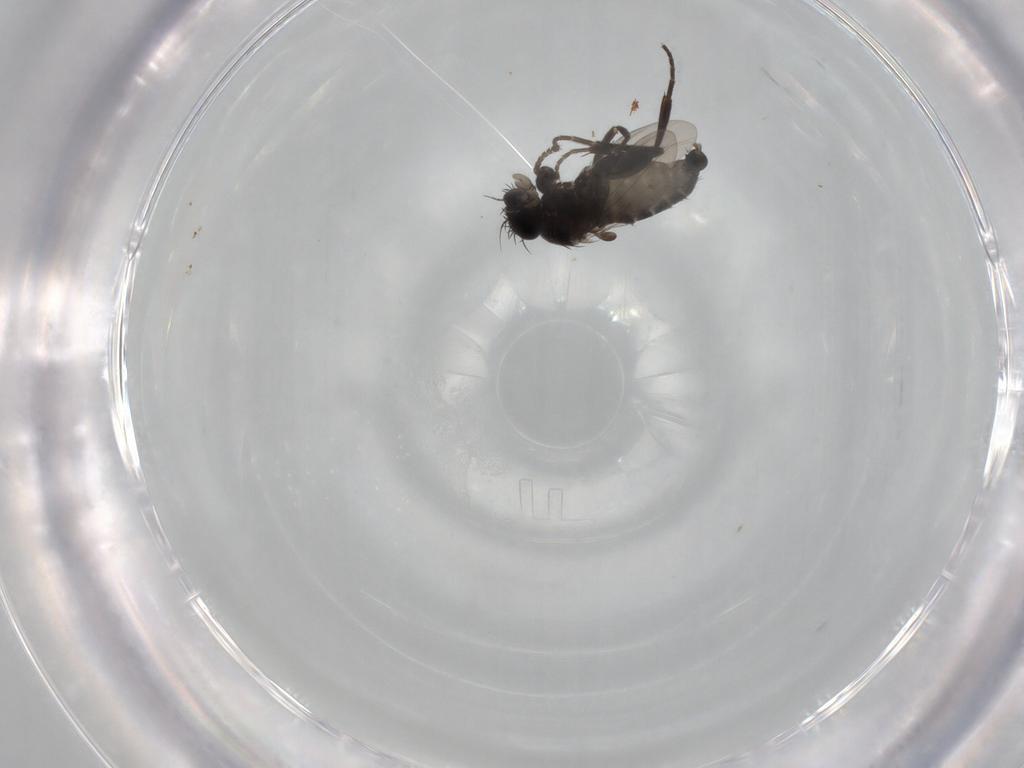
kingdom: Animalia
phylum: Arthropoda
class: Insecta
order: Diptera
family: Phoridae
